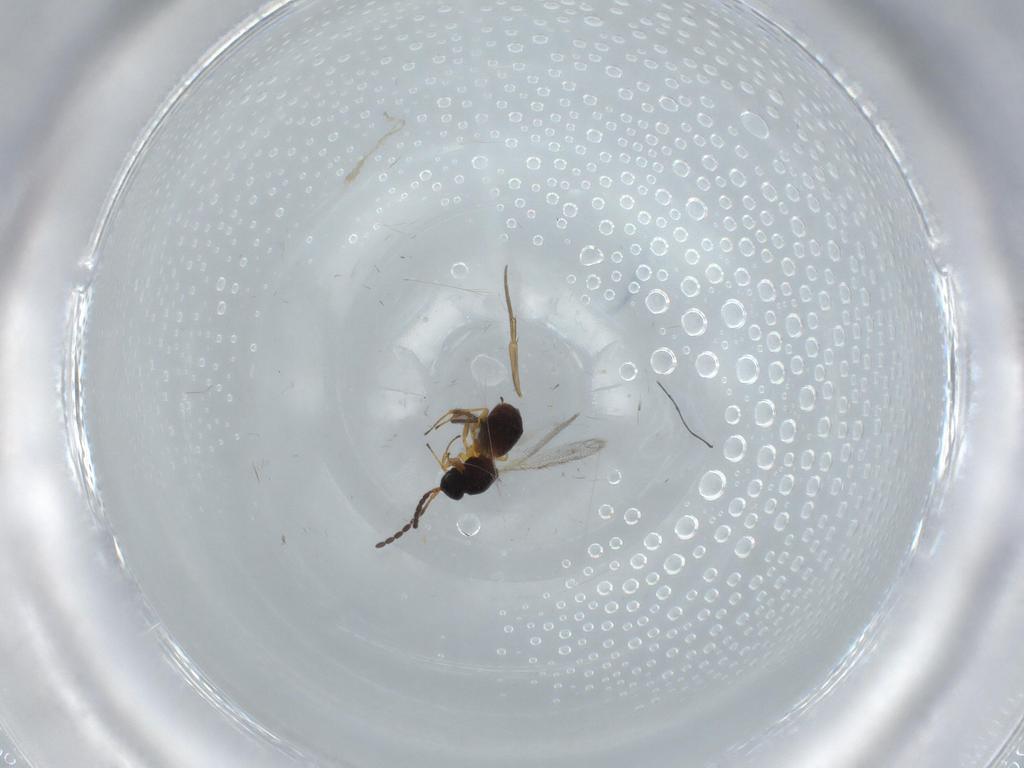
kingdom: Animalia
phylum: Arthropoda
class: Insecta
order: Hymenoptera
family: Figitidae
